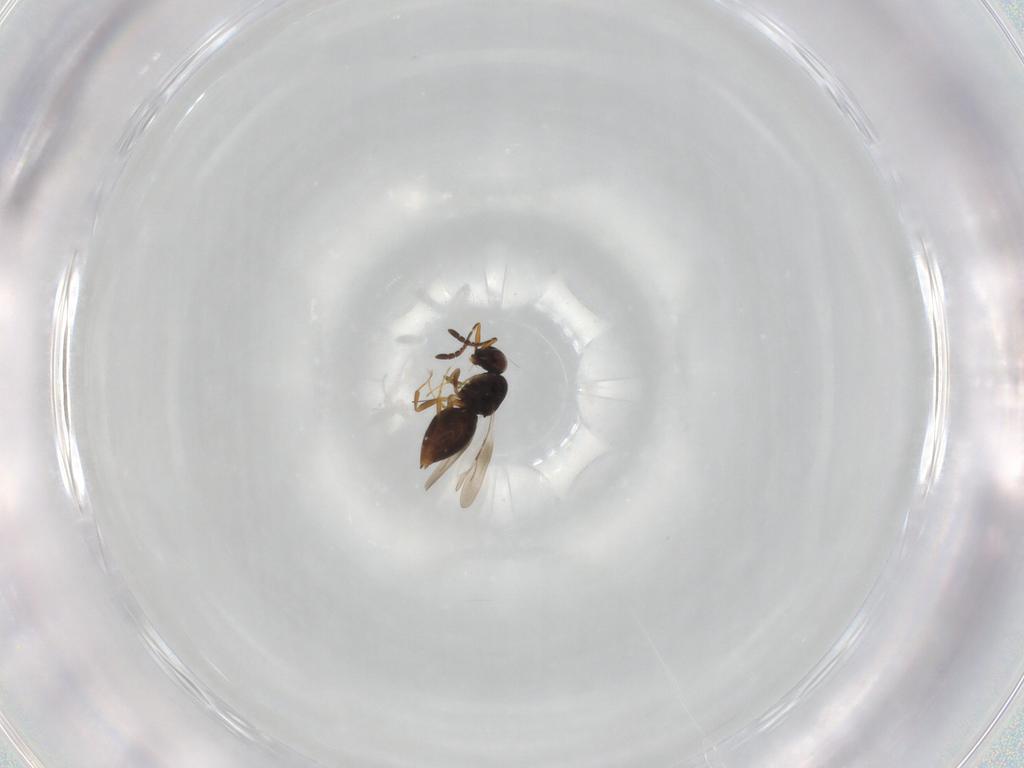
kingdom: Animalia
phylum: Arthropoda
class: Insecta
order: Hymenoptera
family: Ceraphronidae
